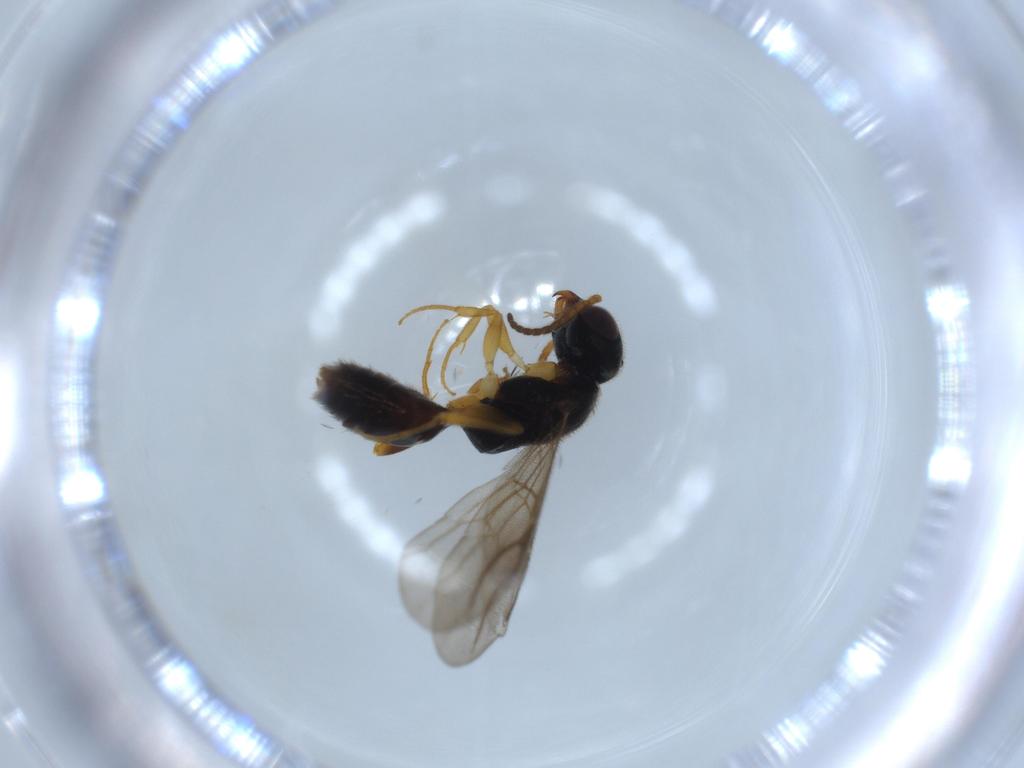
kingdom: Animalia
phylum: Arthropoda
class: Insecta
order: Hymenoptera
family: Bethylidae
